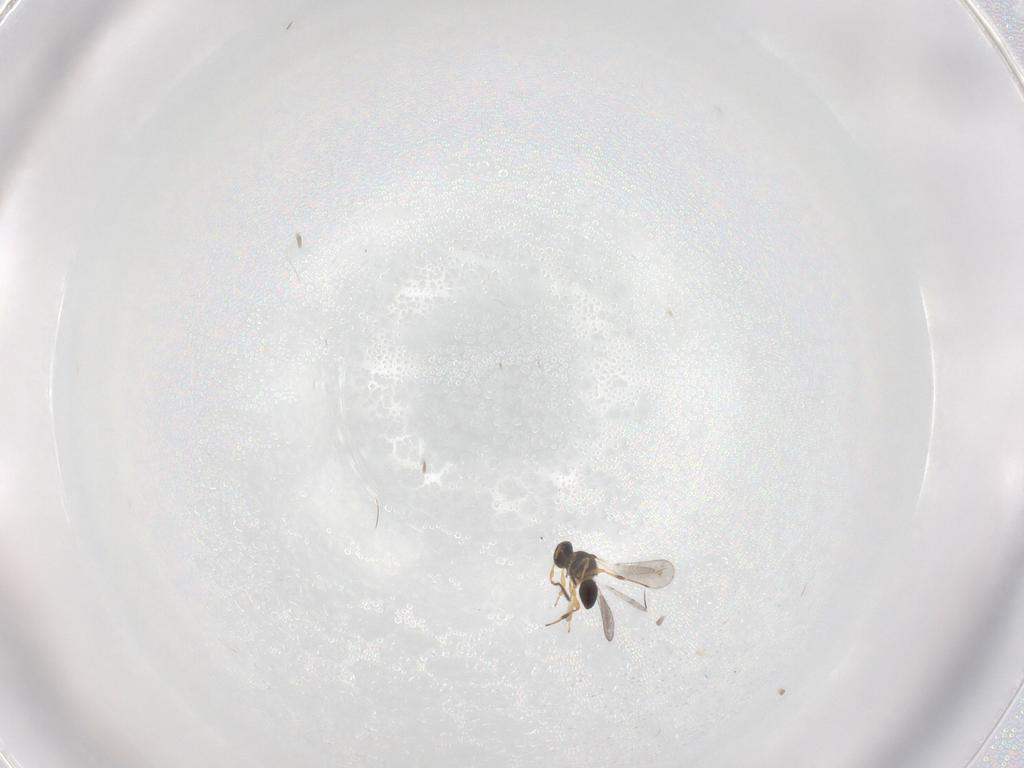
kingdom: Animalia
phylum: Arthropoda
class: Insecta
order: Hymenoptera
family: Platygastridae
